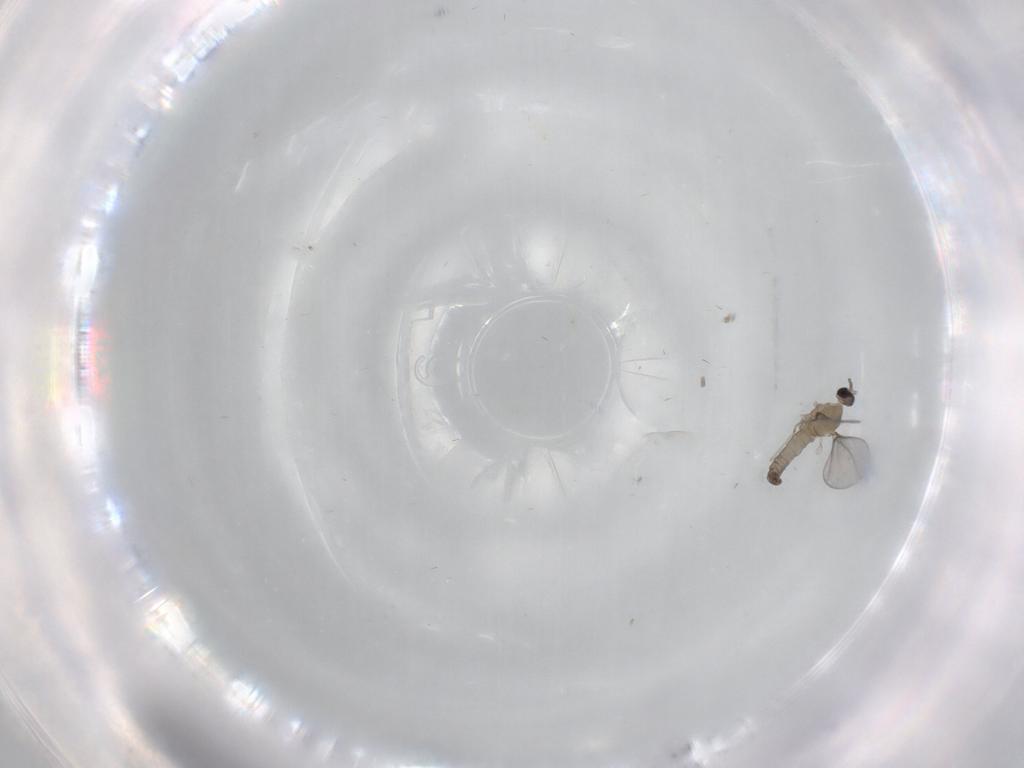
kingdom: Animalia
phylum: Arthropoda
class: Insecta
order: Diptera
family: Cecidomyiidae
